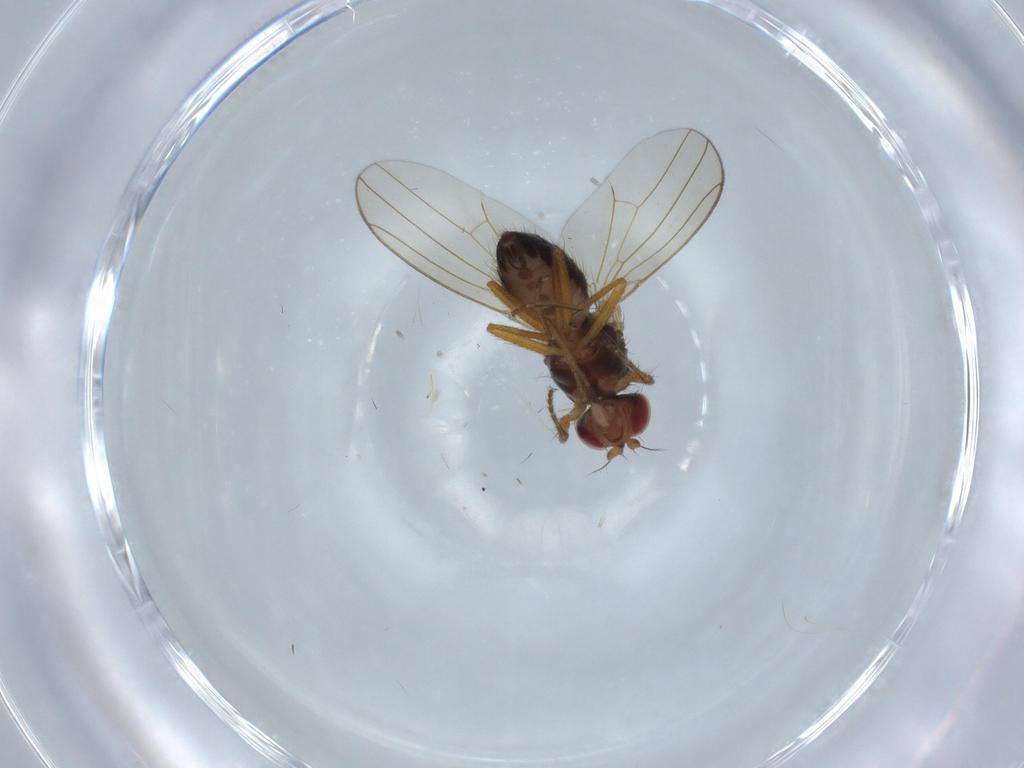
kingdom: Animalia
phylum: Arthropoda
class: Insecta
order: Diptera
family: Drosophilidae
